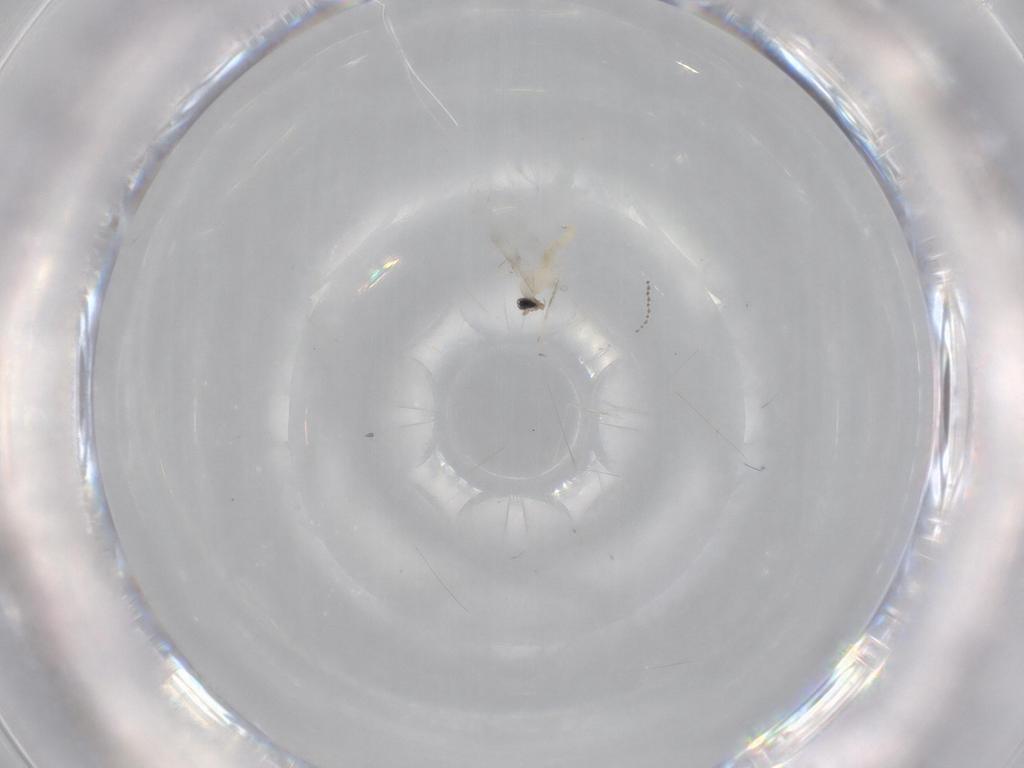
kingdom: Animalia
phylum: Arthropoda
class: Insecta
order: Diptera
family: Cecidomyiidae
